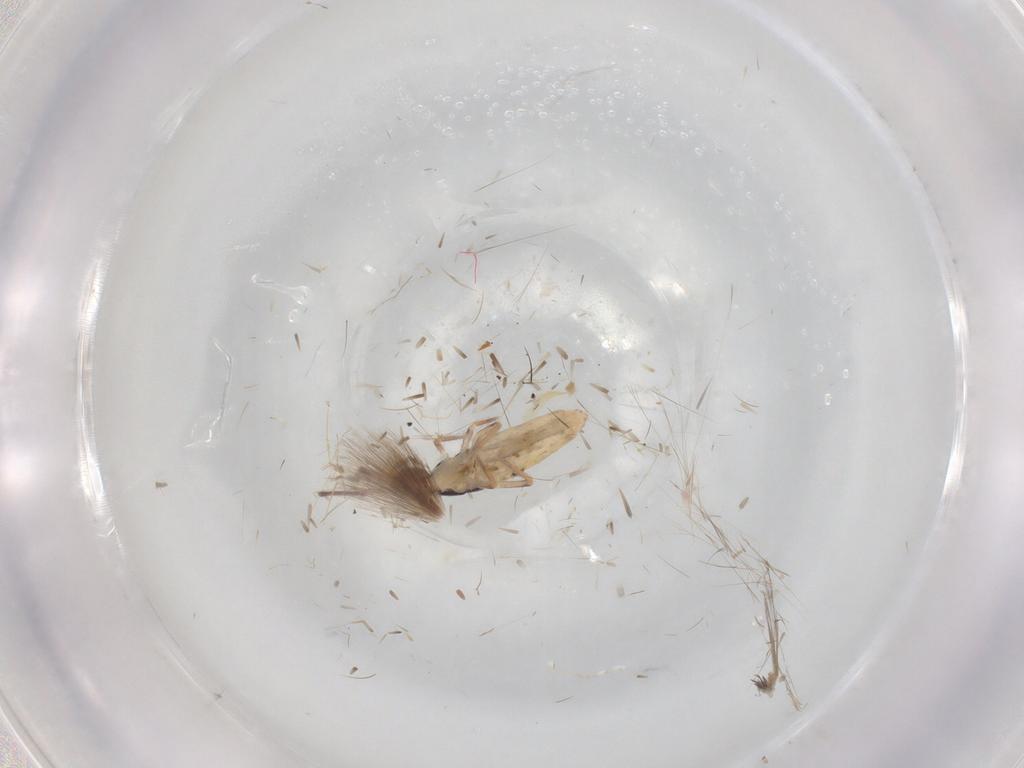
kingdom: Animalia
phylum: Arthropoda
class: Collembola
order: Entomobryomorpha
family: Entomobryidae
